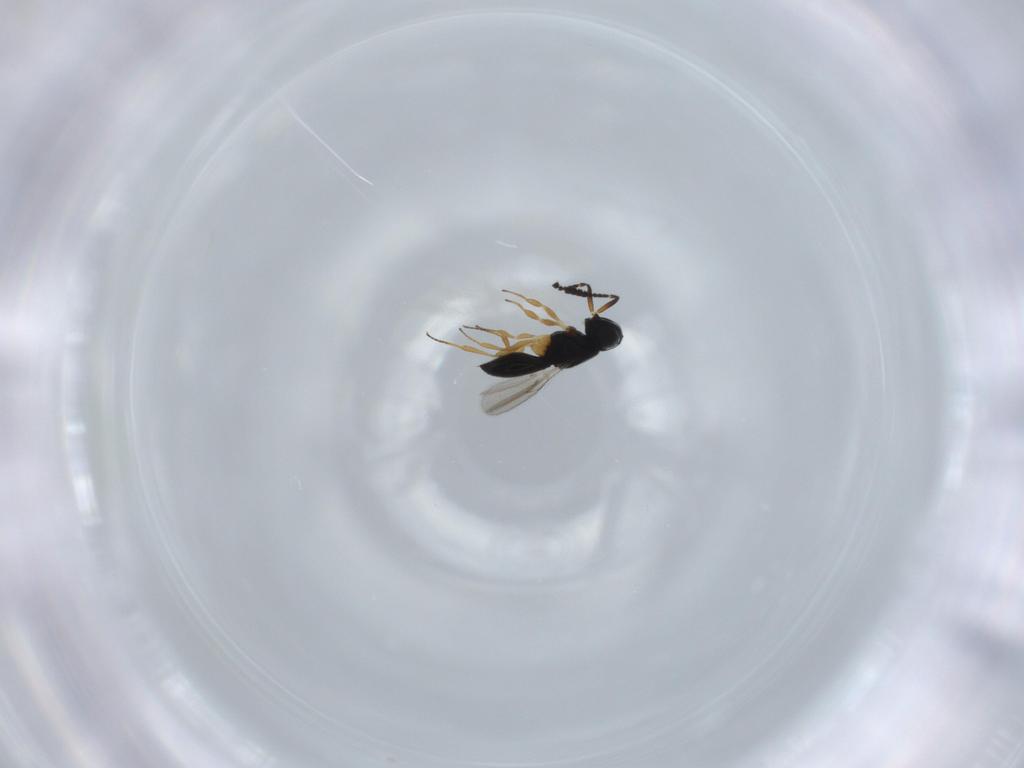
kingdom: Animalia
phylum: Arthropoda
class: Insecta
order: Hymenoptera
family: Scelionidae
